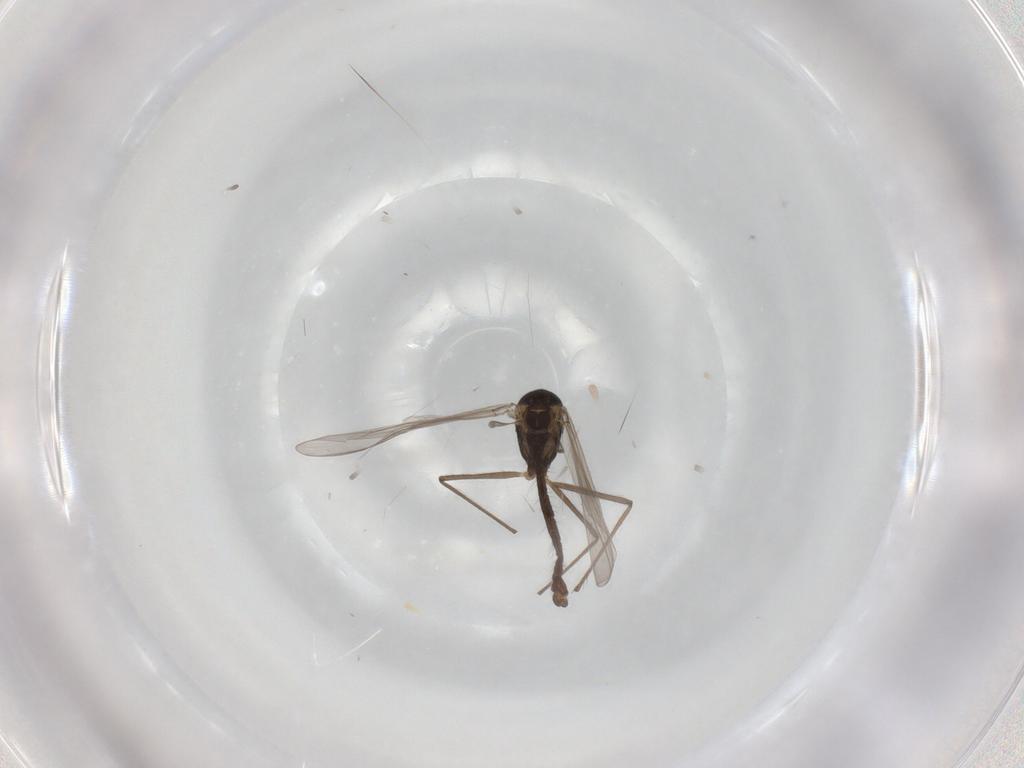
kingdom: Animalia
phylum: Arthropoda
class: Insecta
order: Diptera
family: Chironomidae
